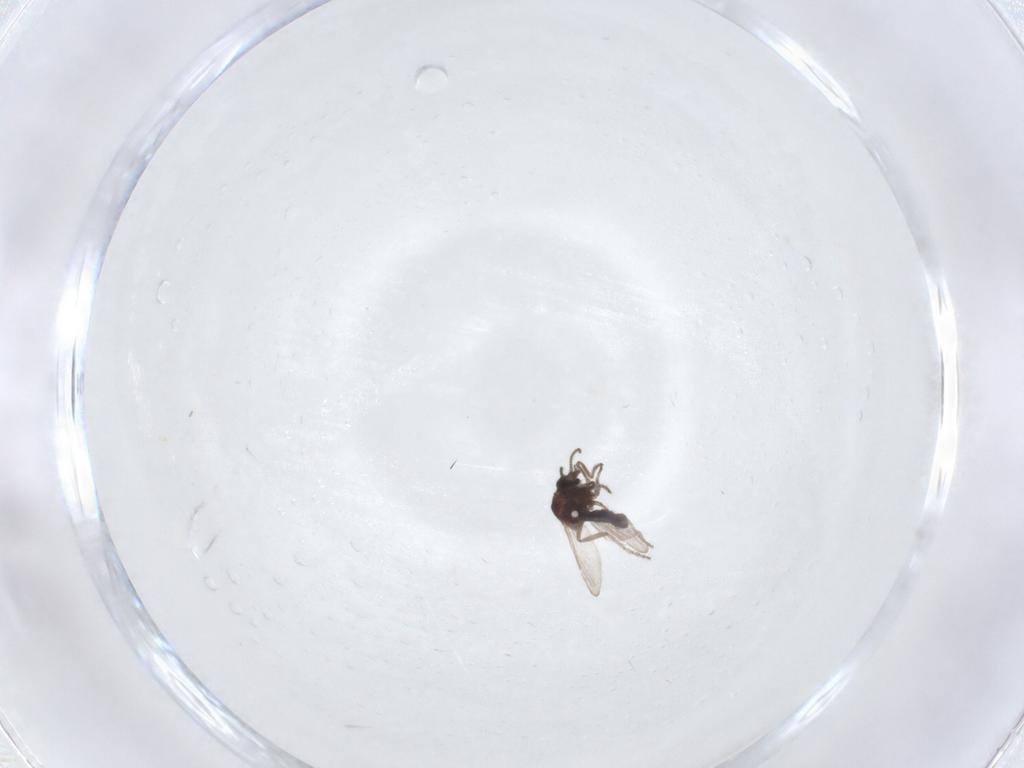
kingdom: Animalia
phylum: Arthropoda
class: Insecta
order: Diptera
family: Ceratopogonidae
